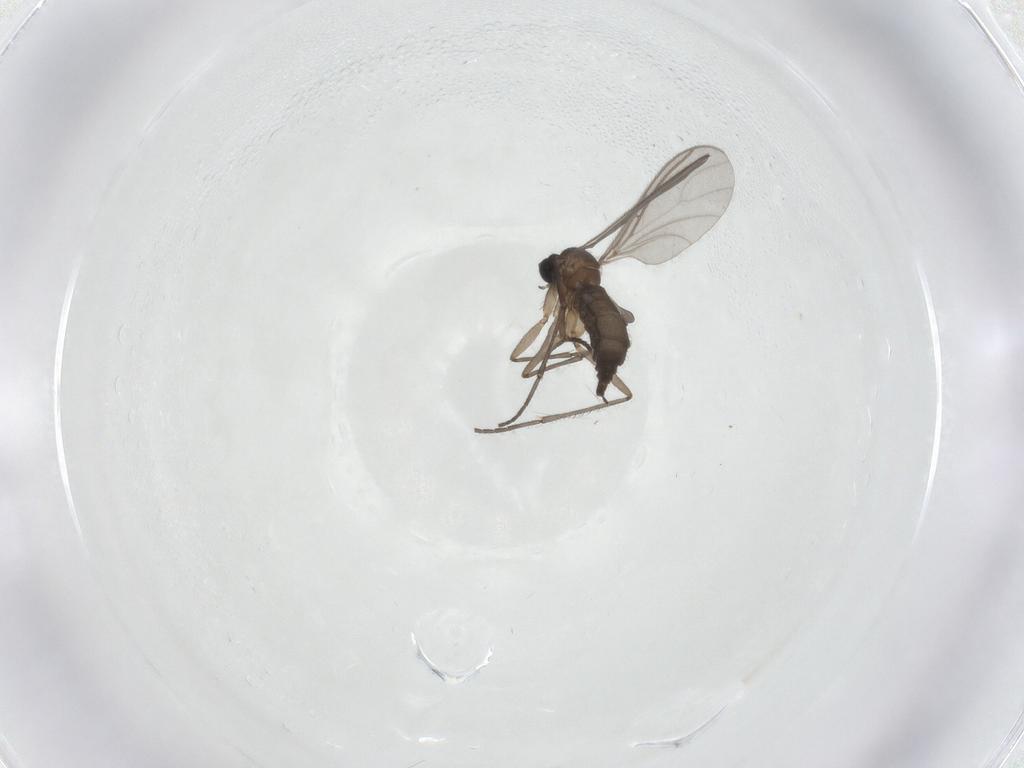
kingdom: Animalia
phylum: Arthropoda
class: Insecta
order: Diptera
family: Sciaridae
